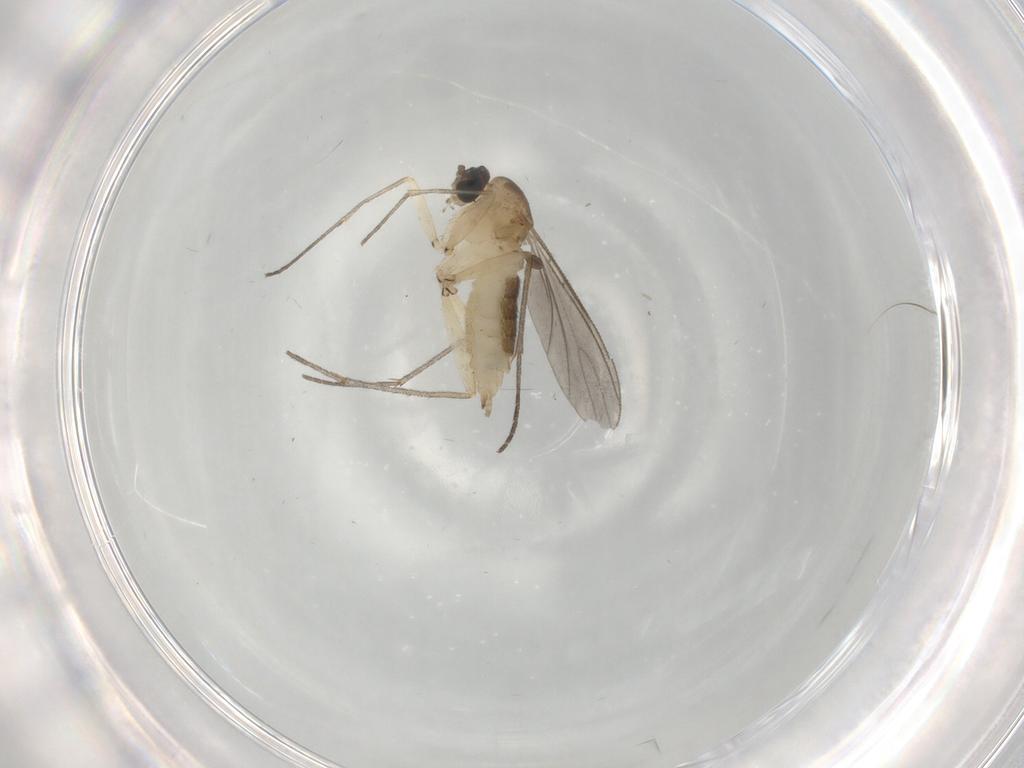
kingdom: Animalia
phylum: Arthropoda
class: Insecta
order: Diptera
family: Sciaridae
